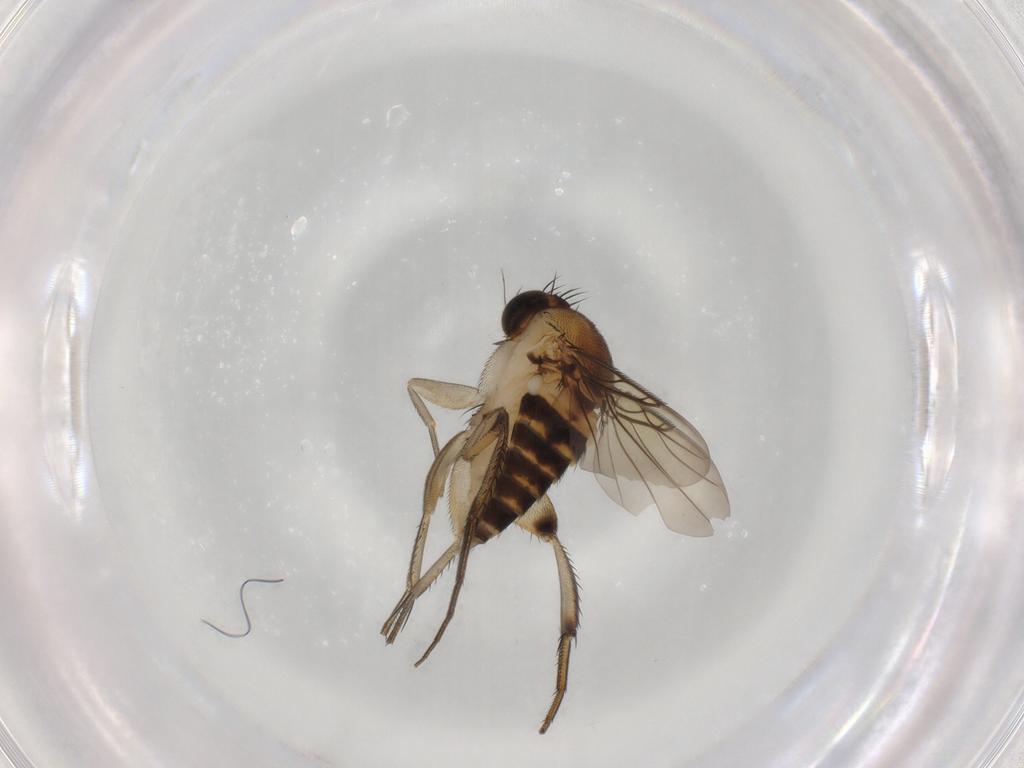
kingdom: Animalia
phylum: Arthropoda
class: Insecta
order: Diptera
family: Phoridae
